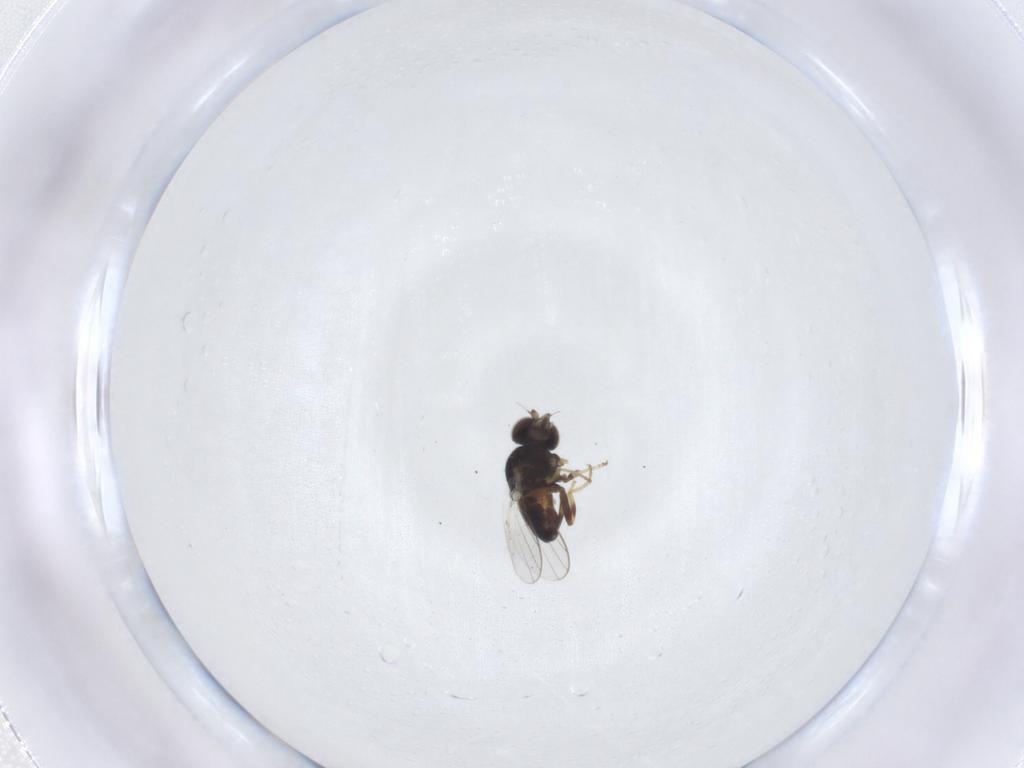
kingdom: Animalia
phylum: Arthropoda
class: Insecta
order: Diptera
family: Chloropidae
